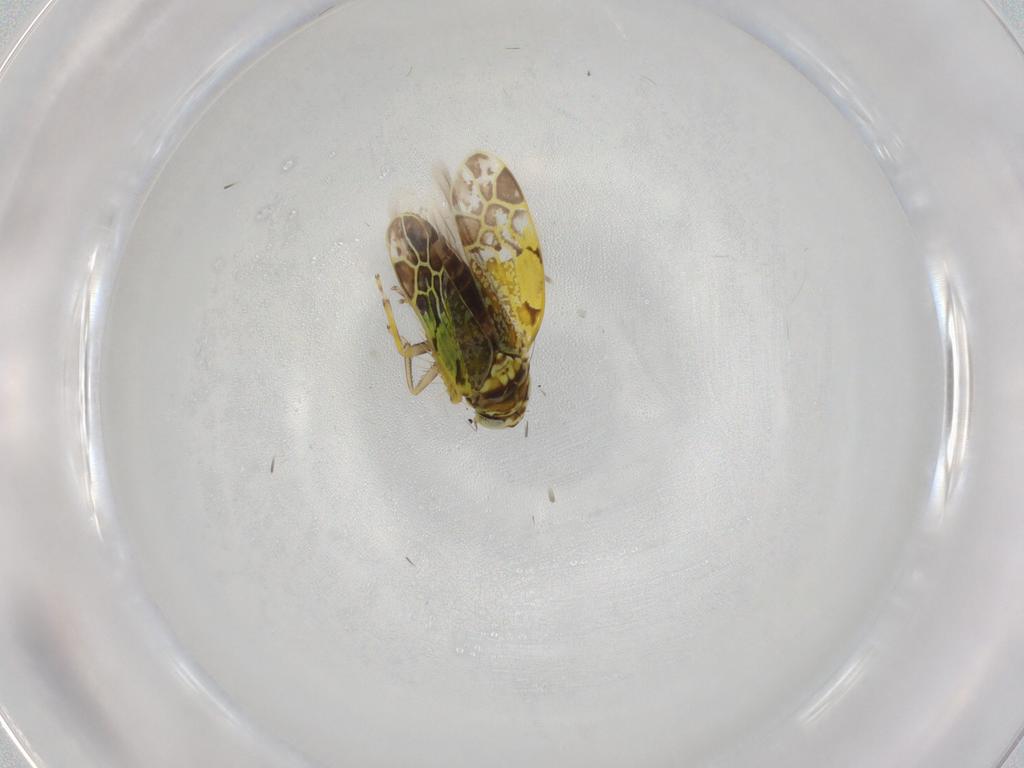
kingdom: Animalia
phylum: Arthropoda
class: Insecta
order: Hemiptera
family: Cicadellidae
